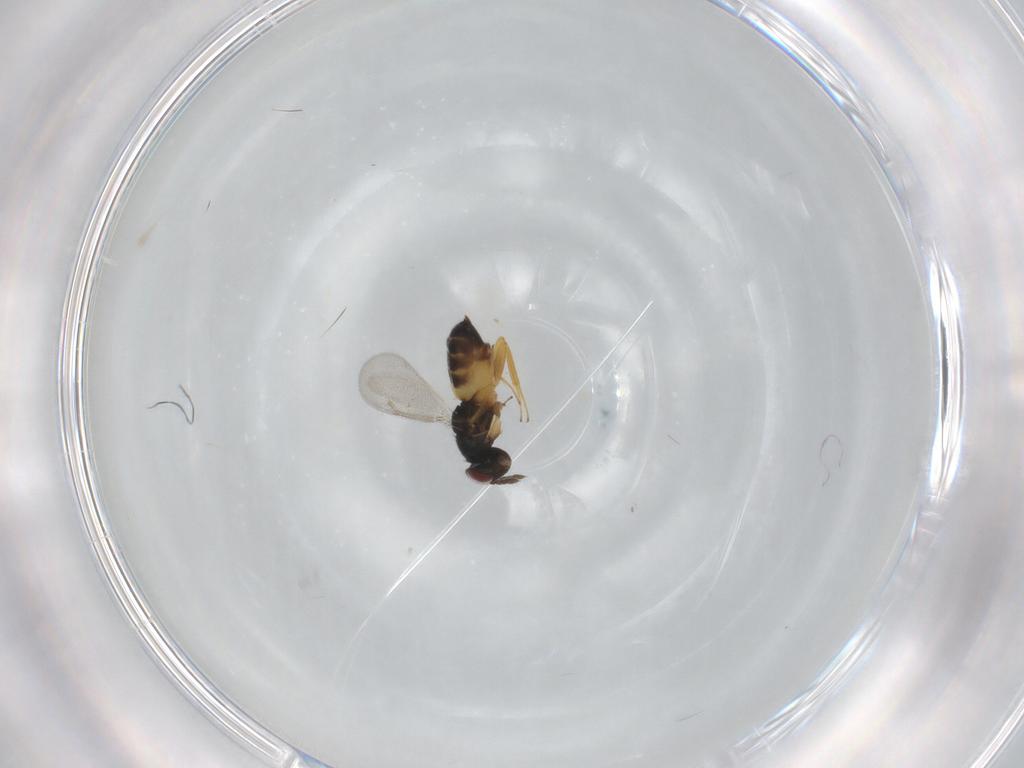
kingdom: Animalia
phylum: Arthropoda
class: Insecta
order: Hymenoptera
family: Eulophidae
